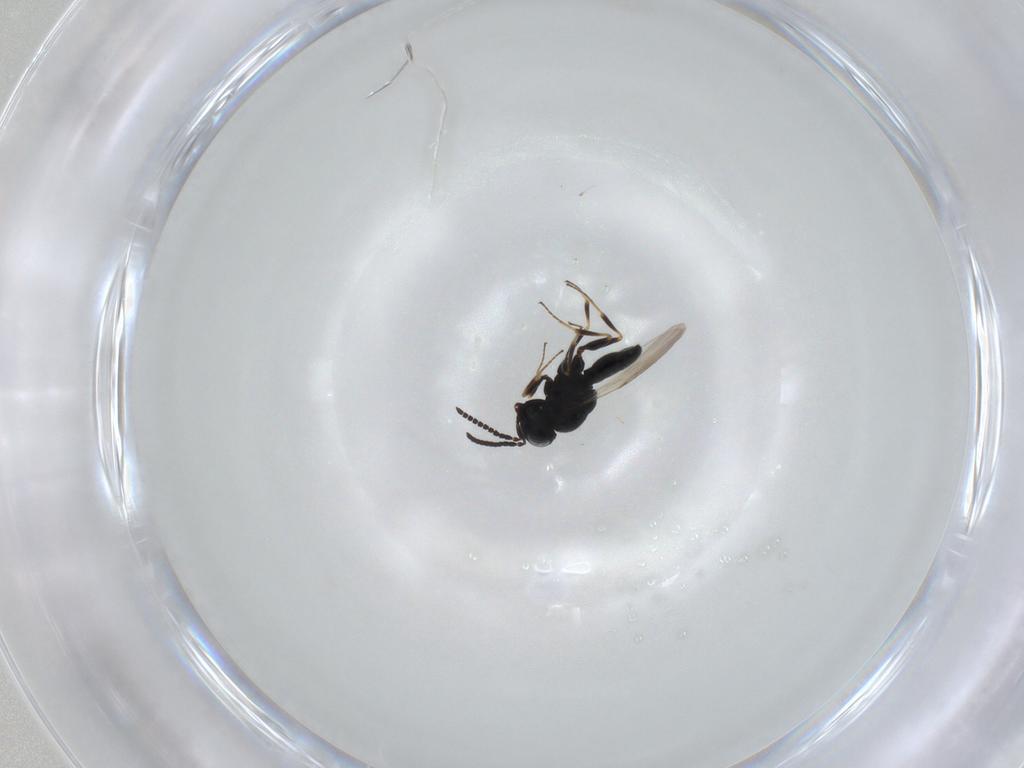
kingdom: Animalia
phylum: Arthropoda
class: Insecta
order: Hymenoptera
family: Scelionidae
